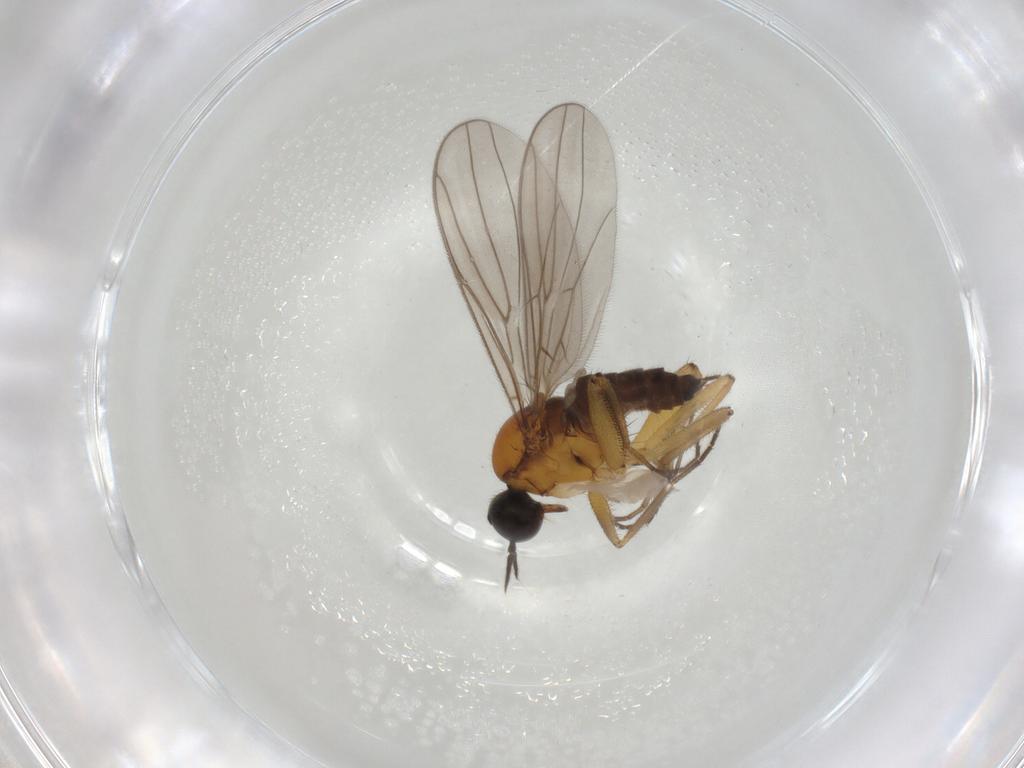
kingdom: Animalia
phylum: Arthropoda
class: Insecta
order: Diptera
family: Hybotidae
